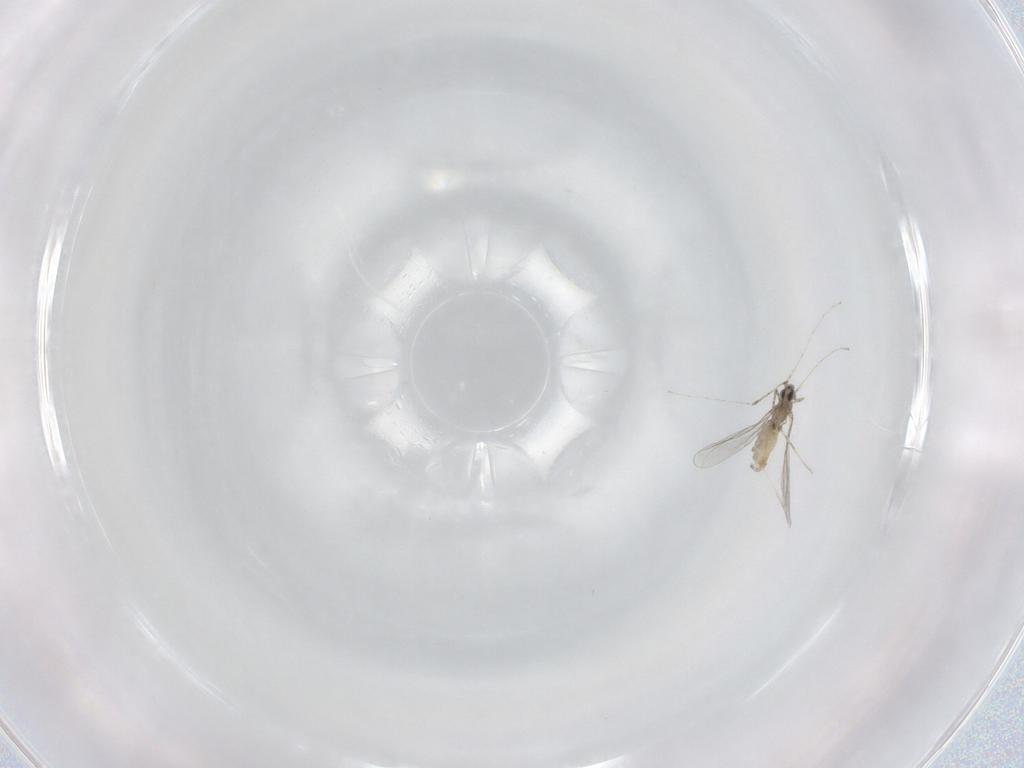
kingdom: Animalia
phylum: Arthropoda
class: Insecta
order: Diptera
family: Cecidomyiidae
